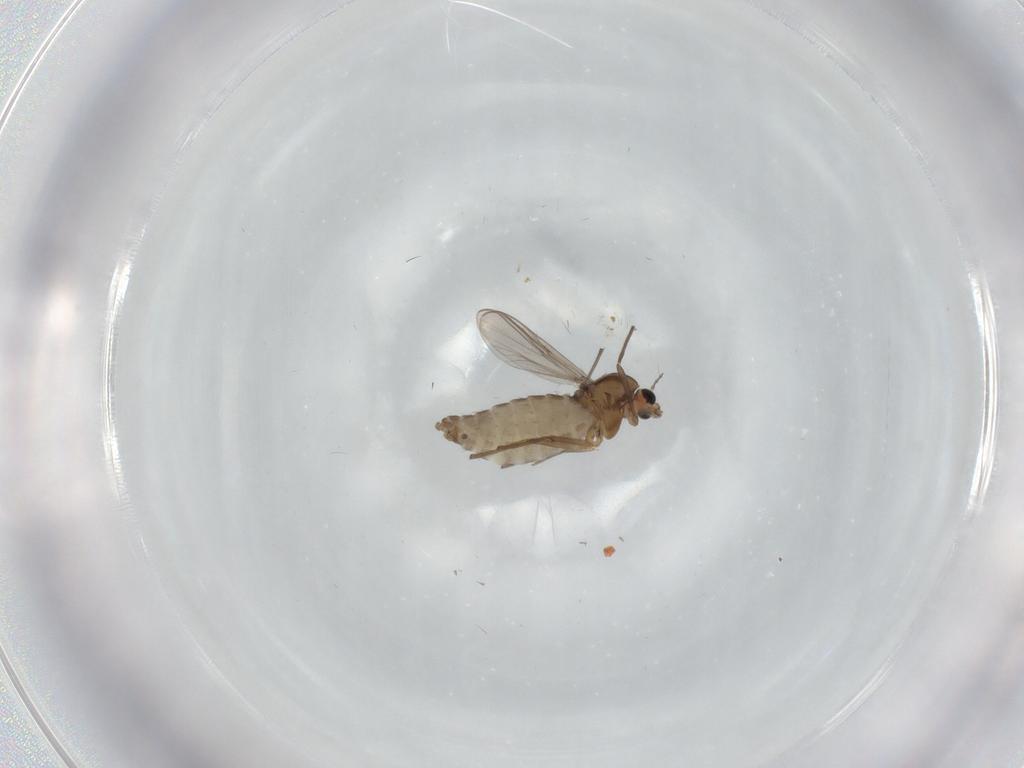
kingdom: Animalia
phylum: Arthropoda
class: Insecta
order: Diptera
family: Chironomidae
